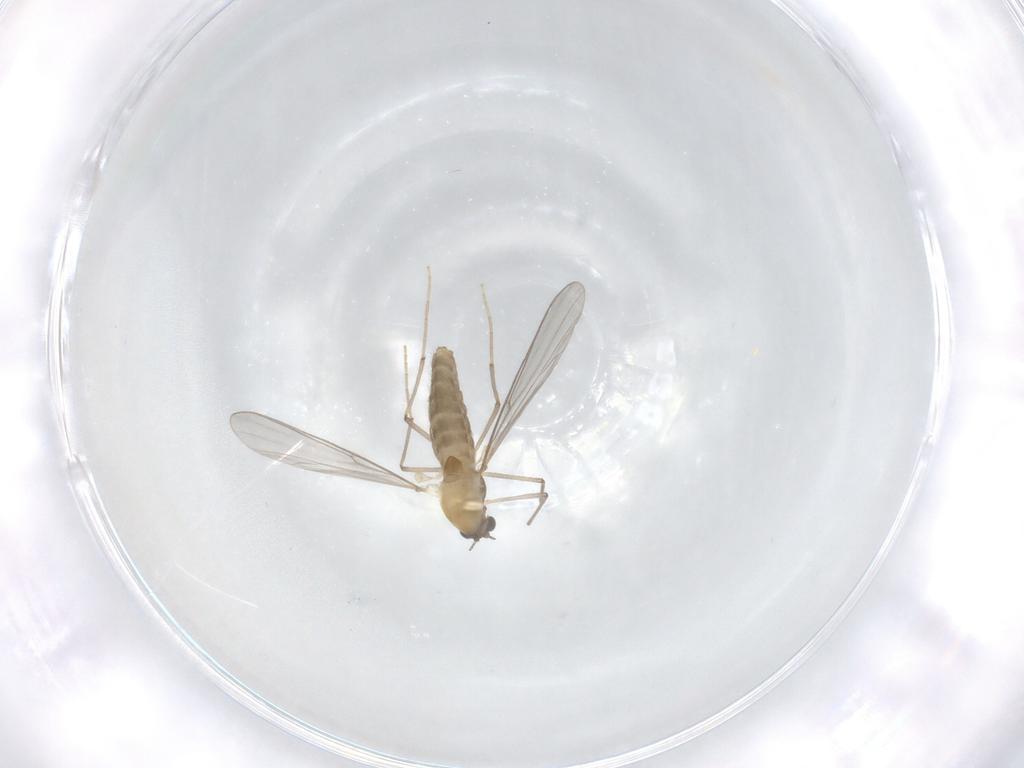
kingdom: Animalia
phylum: Arthropoda
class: Insecta
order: Diptera
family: Chironomidae
